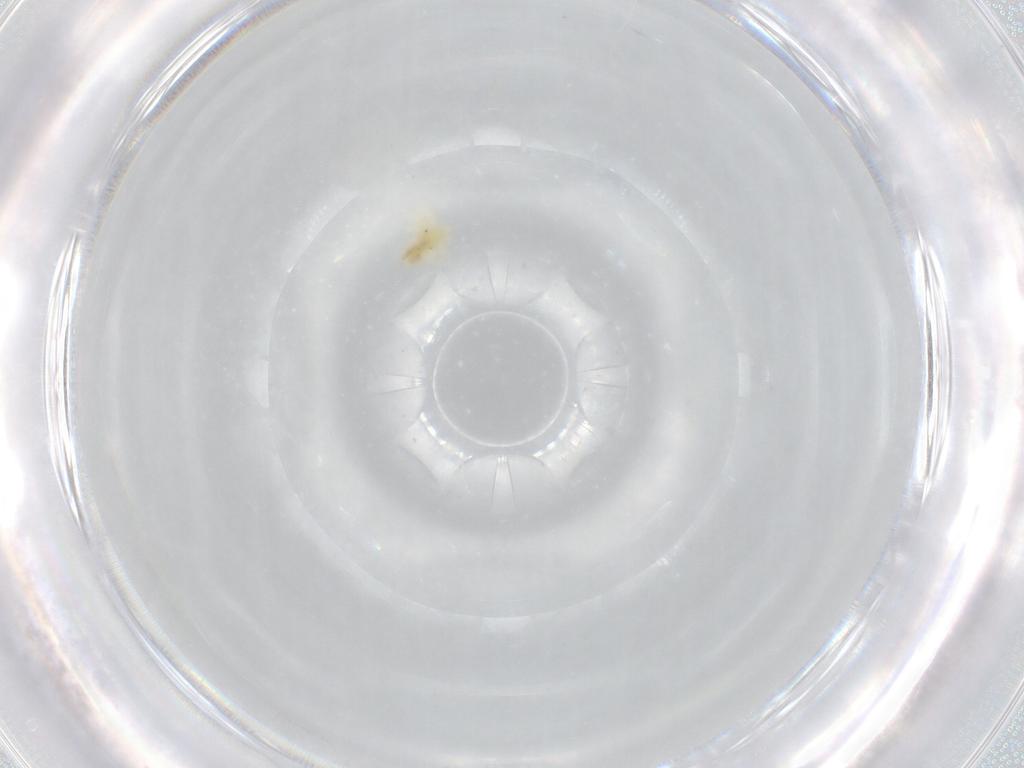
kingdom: Animalia
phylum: Arthropoda
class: Arachnida
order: Trombidiformes
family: Anystidae
